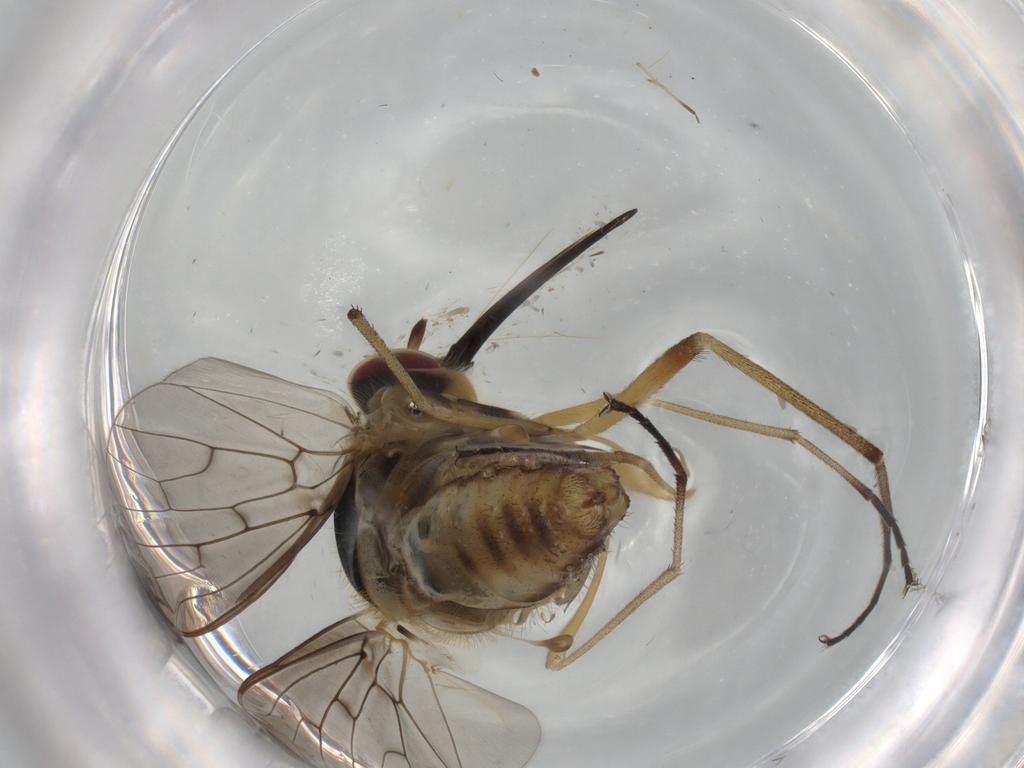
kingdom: Animalia
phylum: Arthropoda
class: Insecta
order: Diptera
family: Bombyliidae
